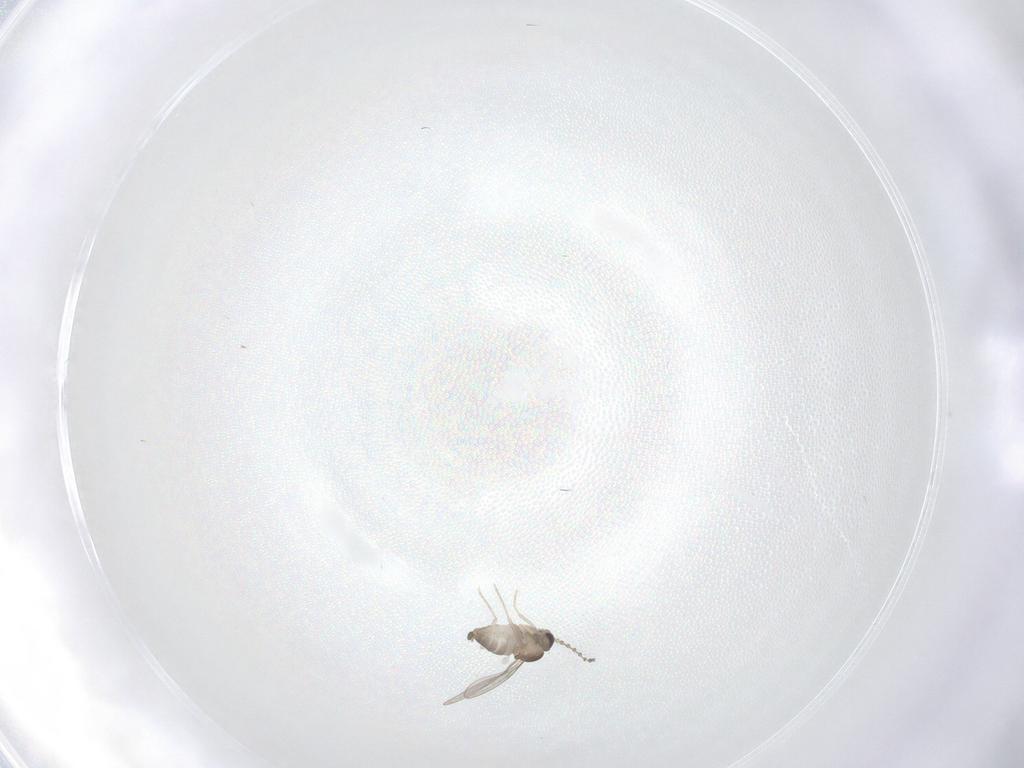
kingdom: Animalia
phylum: Arthropoda
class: Insecta
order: Diptera
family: Cecidomyiidae
